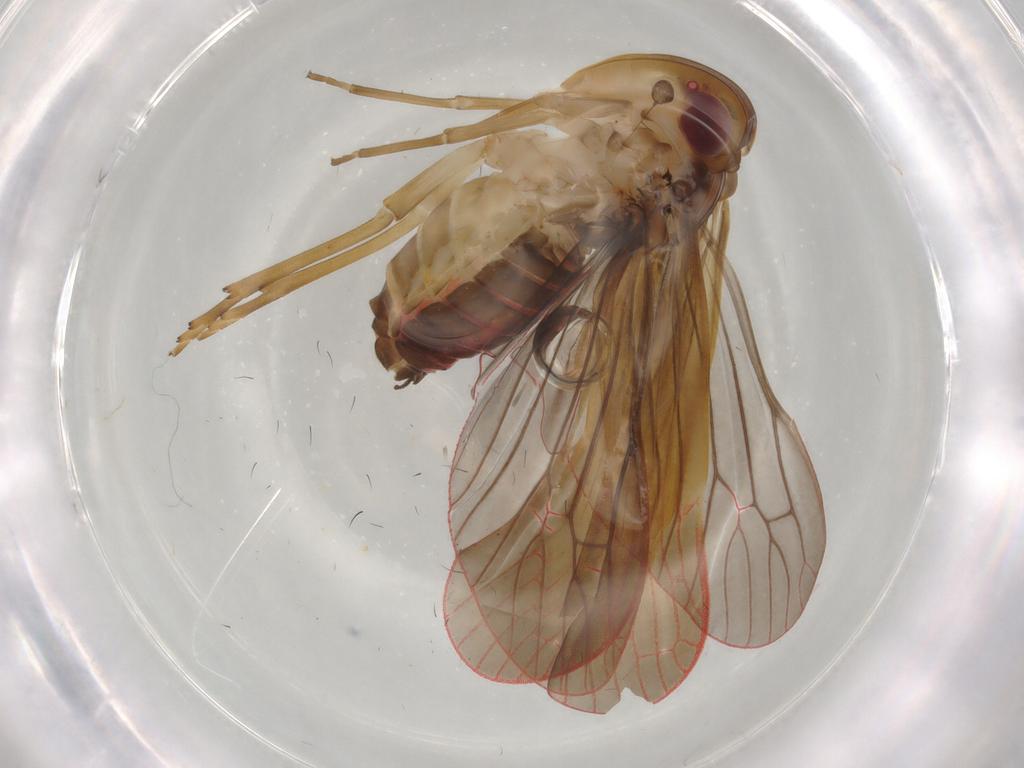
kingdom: Animalia
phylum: Arthropoda
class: Insecta
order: Hemiptera
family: Achilidae
